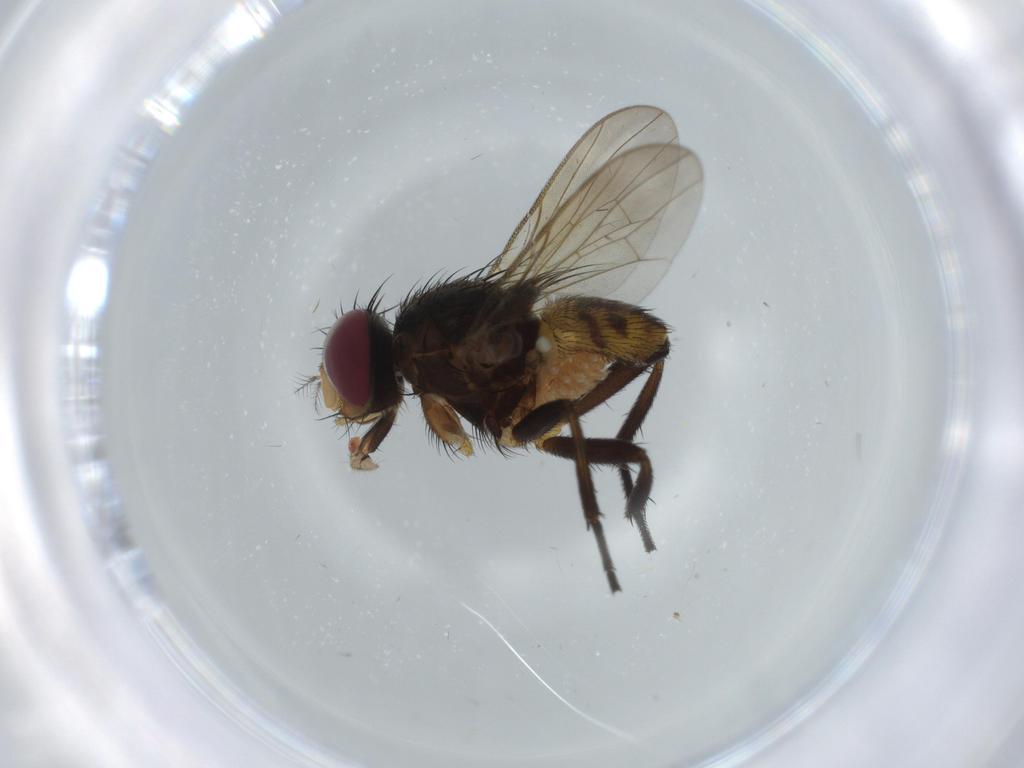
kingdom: Animalia
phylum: Arthropoda
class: Insecta
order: Diptera
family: Anthomyiidae
